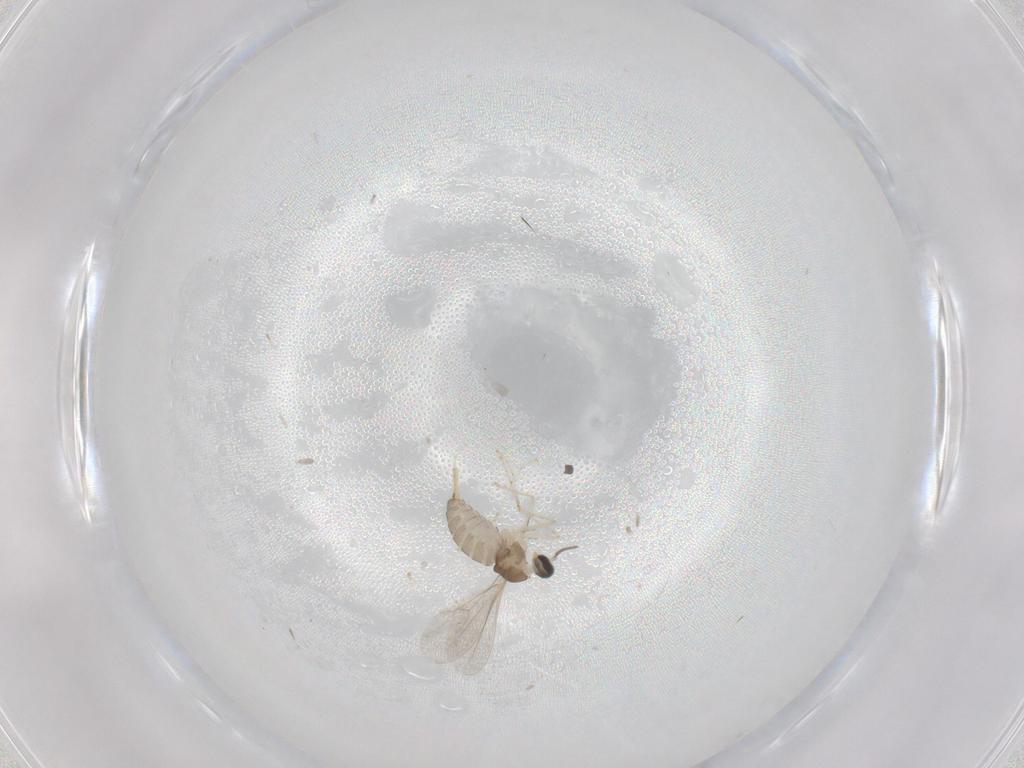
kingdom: Animalia
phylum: Arthropoda
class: Insecta
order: Diptera
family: Cecidomyiidae
